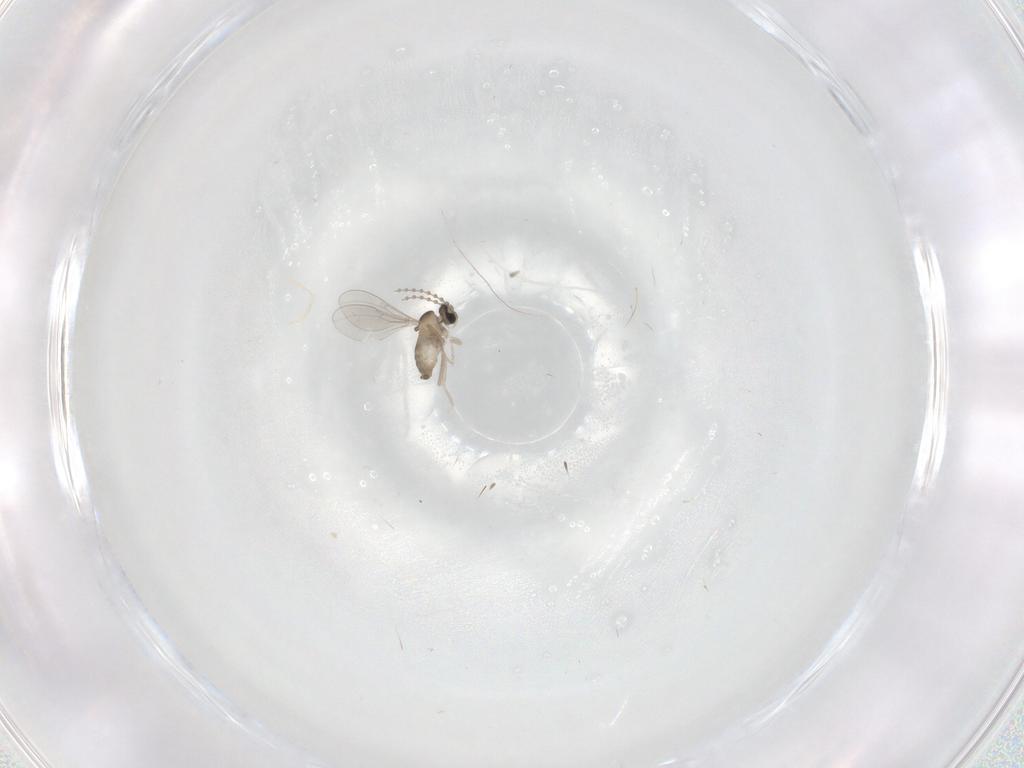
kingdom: Animalia
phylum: Arthropoda
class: Insecta
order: Diptera
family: Cecidomyiidae
